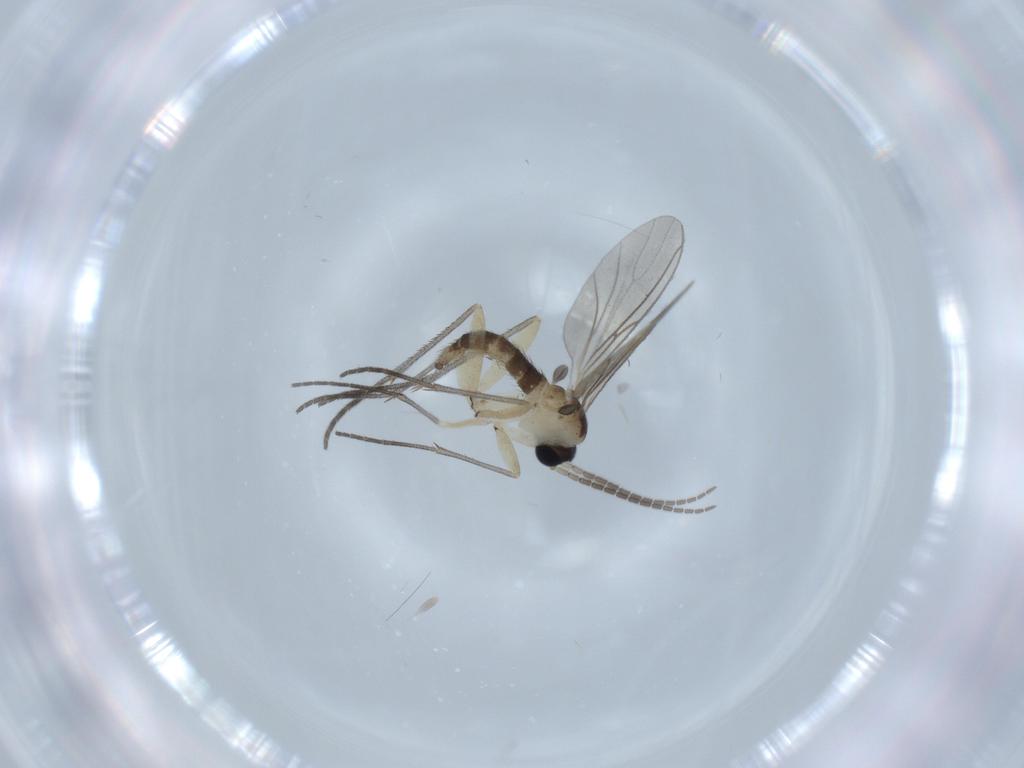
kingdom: Animalia
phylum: Arthropoda
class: Insecta
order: Diptera
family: Sciaridae
